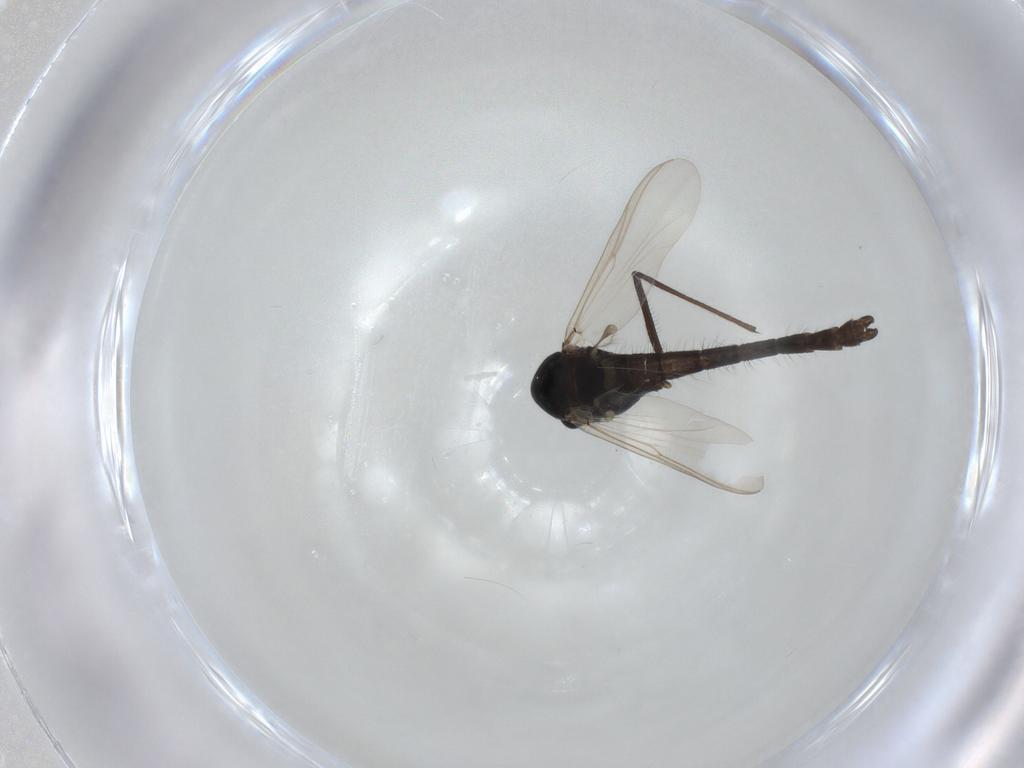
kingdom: Animalia
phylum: Arthropoda
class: Insecta
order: Diptera
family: Chironomidae
